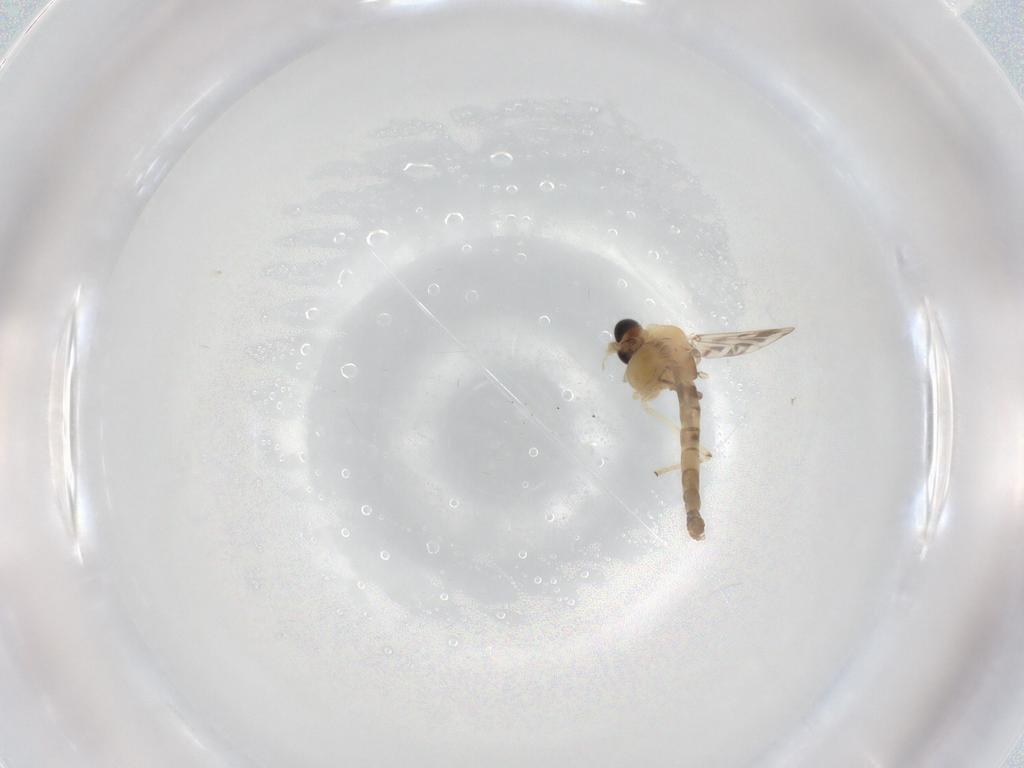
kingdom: Animalia
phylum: Arthropoda
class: Insecta
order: Diptera
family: Chironomidae
